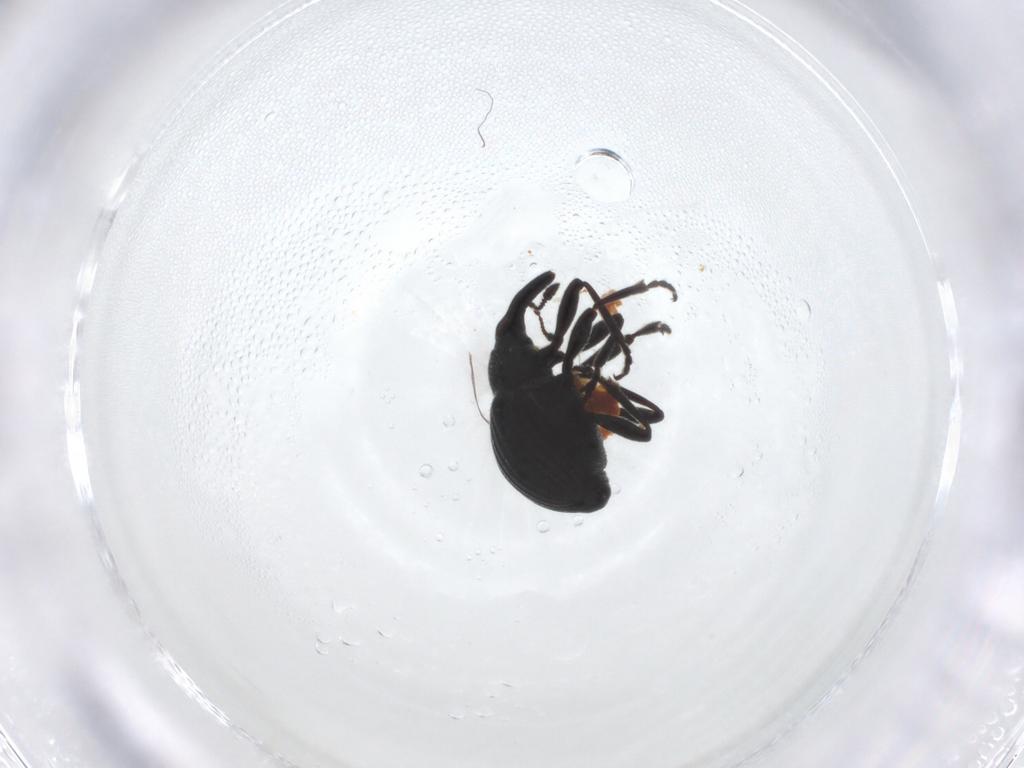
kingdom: Animalia
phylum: Arthropoda
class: Insecta
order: Coleoptera
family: Brentidae
